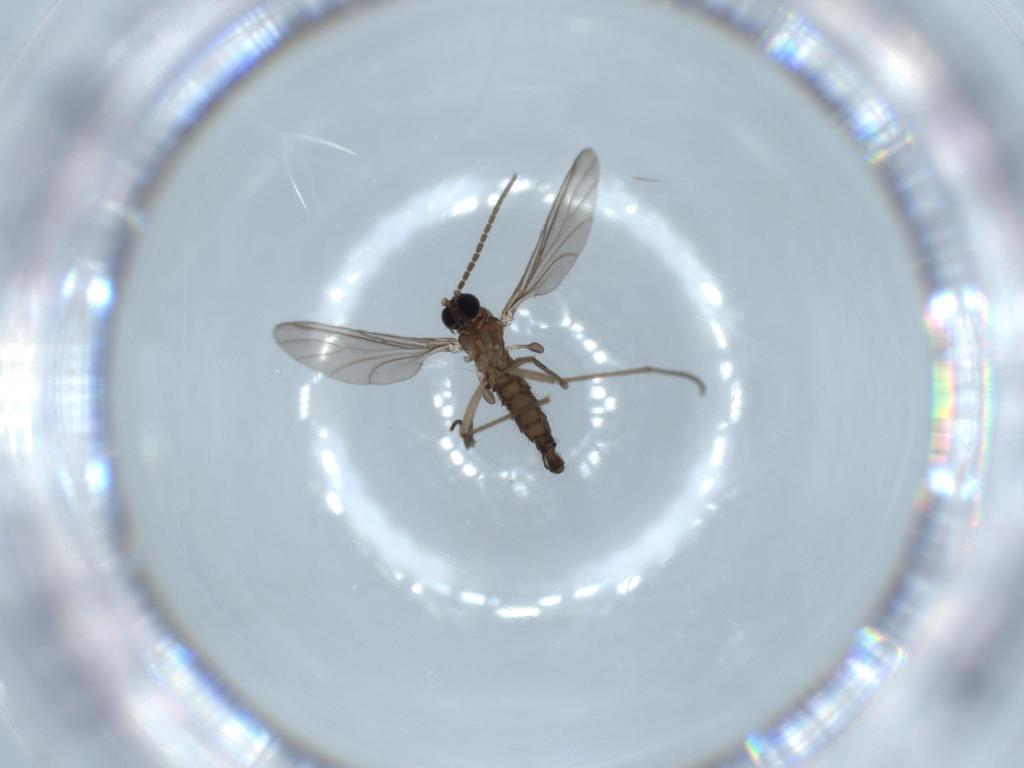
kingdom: Animalia
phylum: Arthropoda
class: Insecta
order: Diptera
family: Sciaridae
